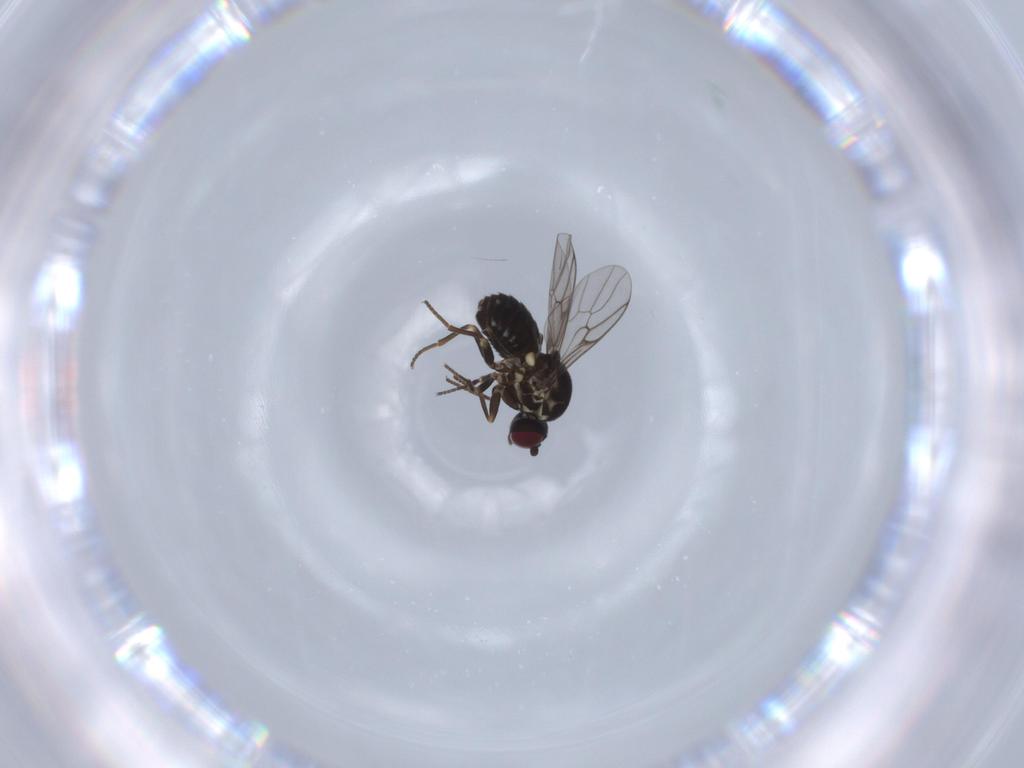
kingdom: Animalia
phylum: Arthropoda
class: Insecta
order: Diptera
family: Bombyliidae
